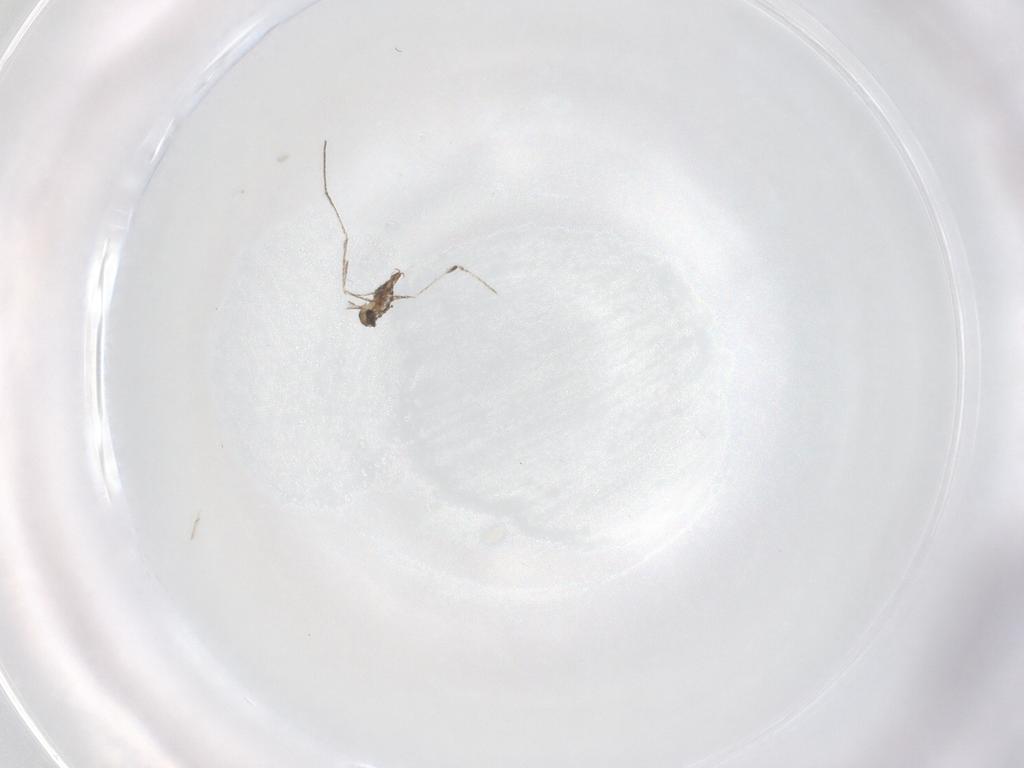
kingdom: Animalia
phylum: Arthropoda
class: Insecta
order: Diptera
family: Cecidomyiidae
